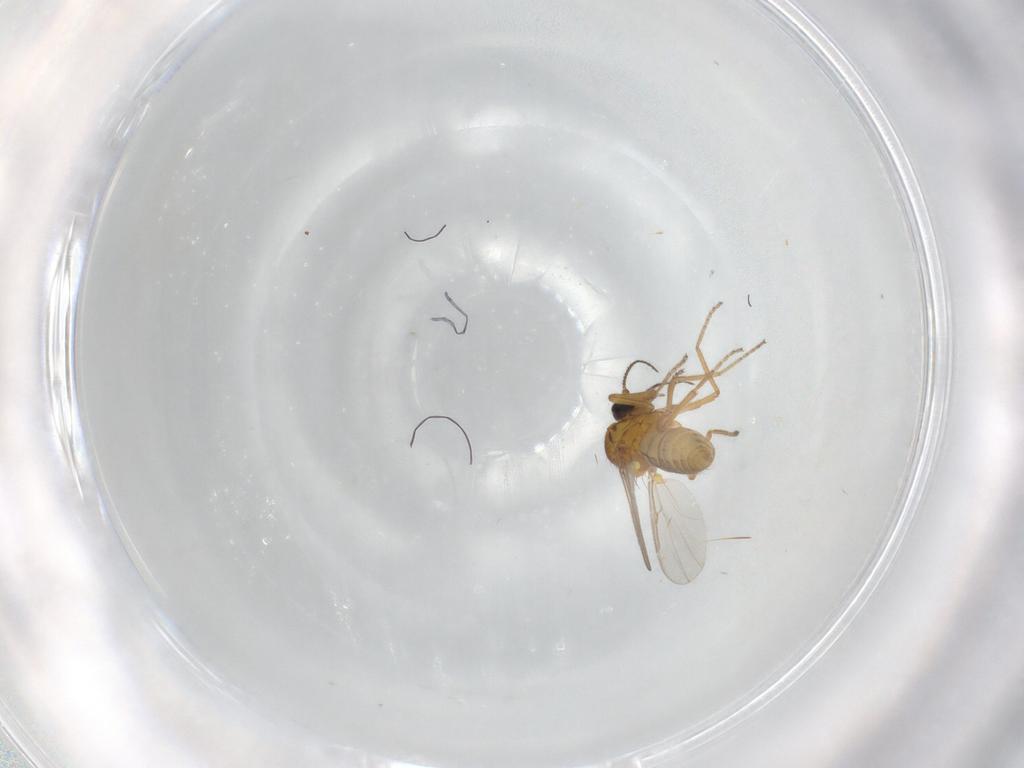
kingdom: Animalia
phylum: Arthropoda
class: Insecta
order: Diptera
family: Ceratopogonidae
